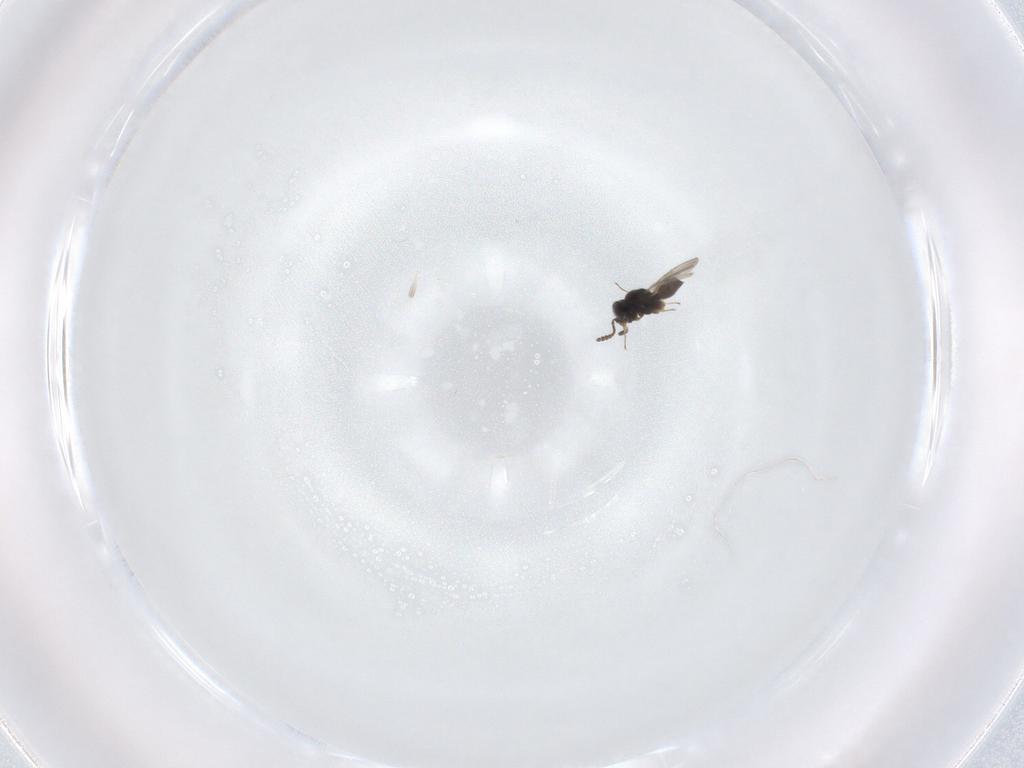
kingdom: Animalia
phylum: Arthropoda
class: Insecta
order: Hymenoptera
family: Scelionidae
